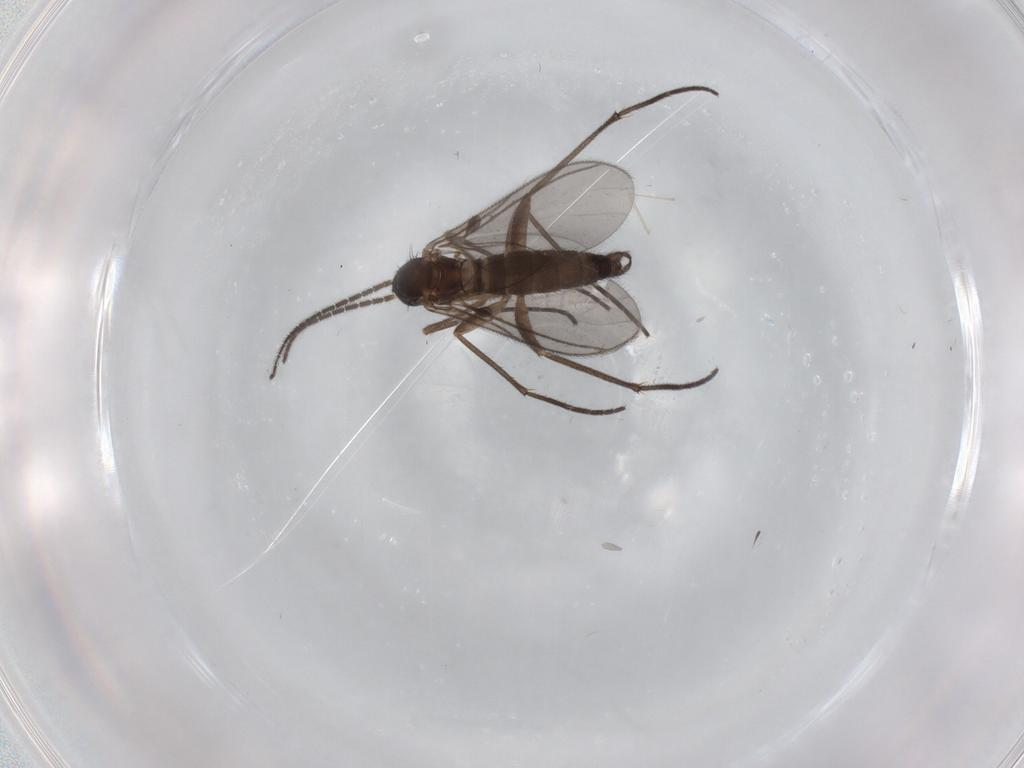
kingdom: Animalia
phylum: Arthropoda
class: Insecta
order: Diptera
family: Sciaridae
